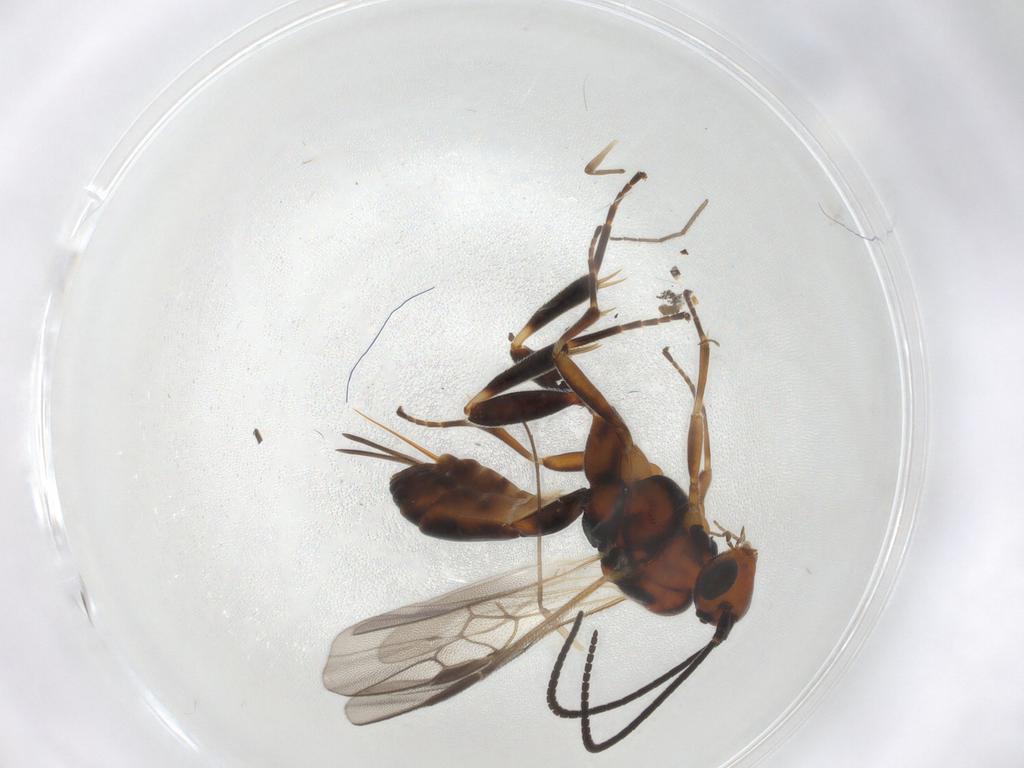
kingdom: Animalia
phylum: Arthropoda
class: Insecta
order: Hymenoptera
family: Braconidae
